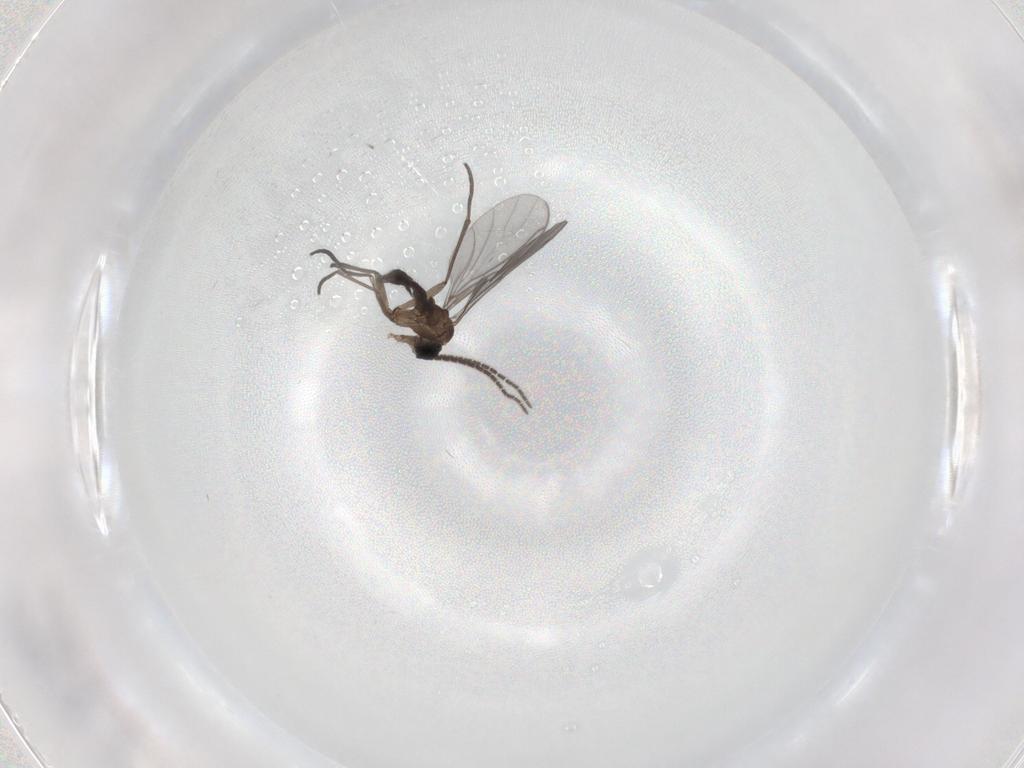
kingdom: Animalia
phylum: Arthropoda
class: Insecta
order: Diptera
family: Sciaridae
